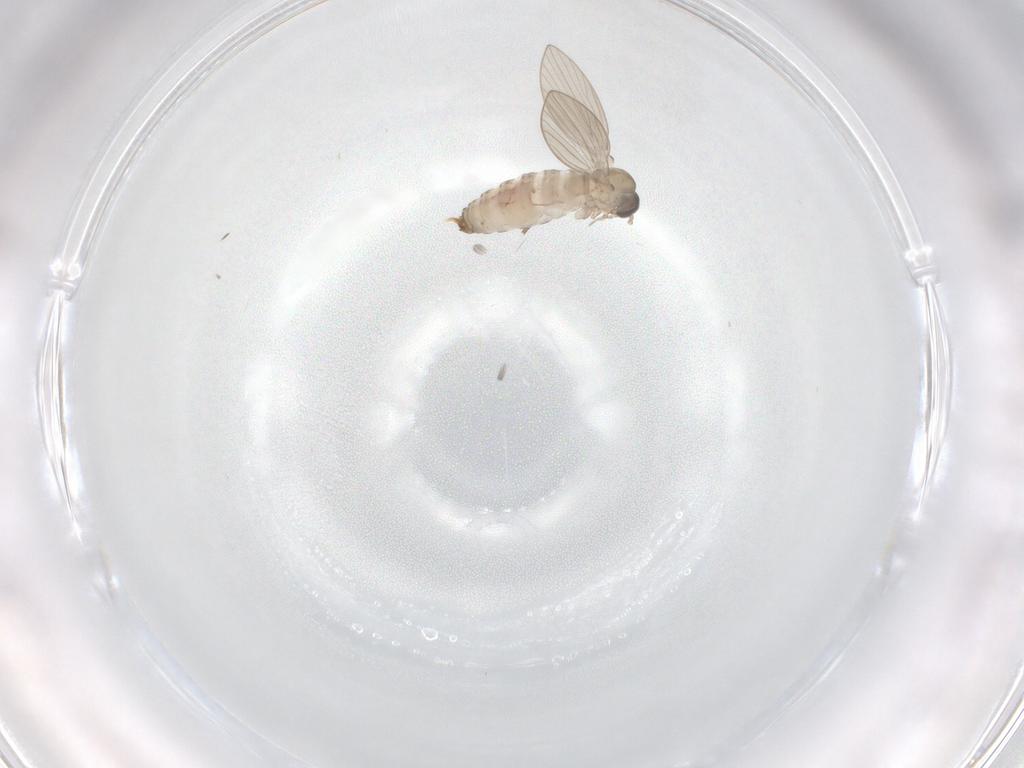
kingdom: Animalia
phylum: Arthropoda
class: Insecta
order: Diptera
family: Psychodidae
